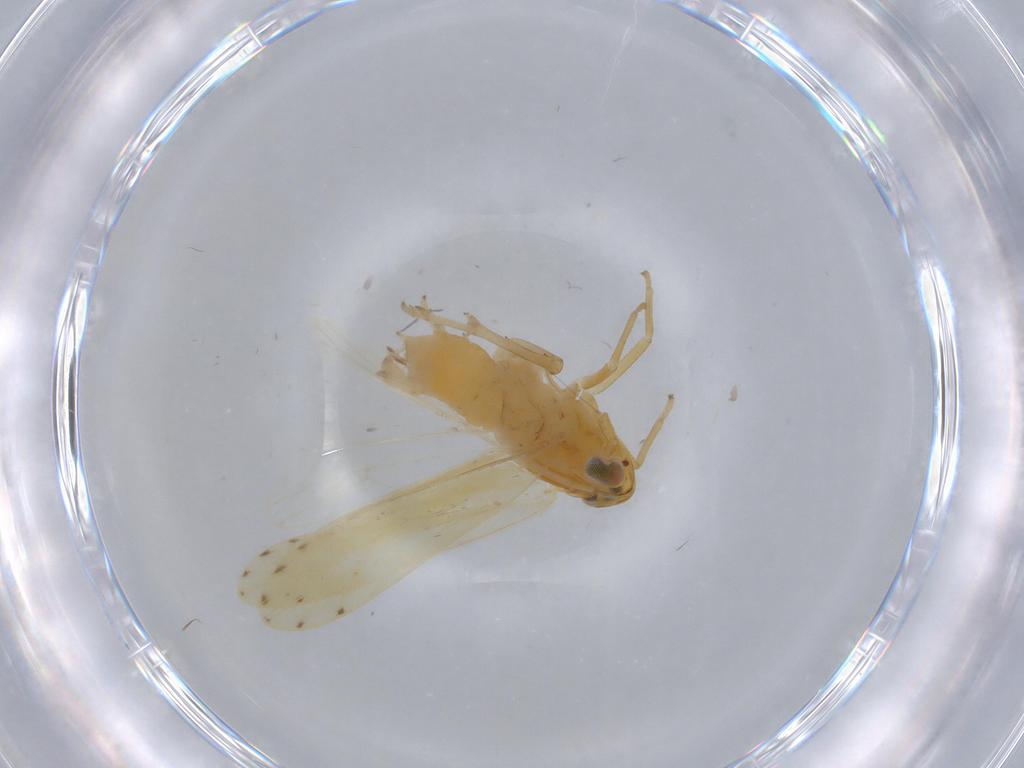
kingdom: Animalia
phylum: Arthropoda
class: Insecta
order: Hemiptera
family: Delphacidae
